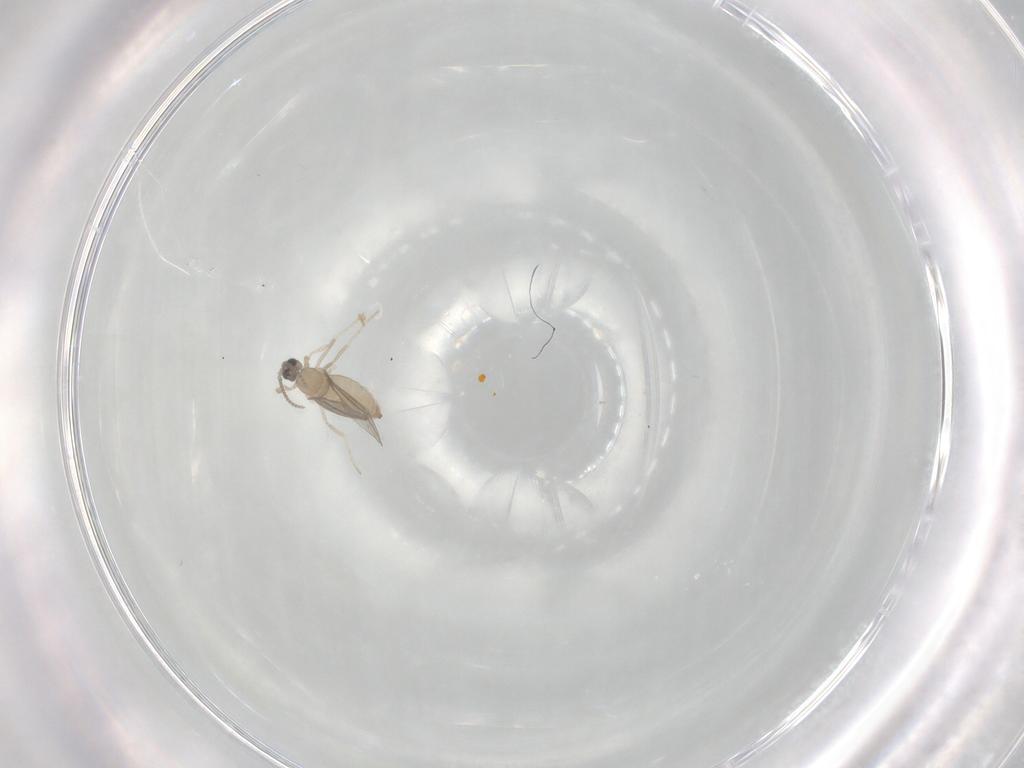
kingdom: Animalia
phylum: Arthropoda
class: Insecta
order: Diptera
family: Cecidomyiidae
